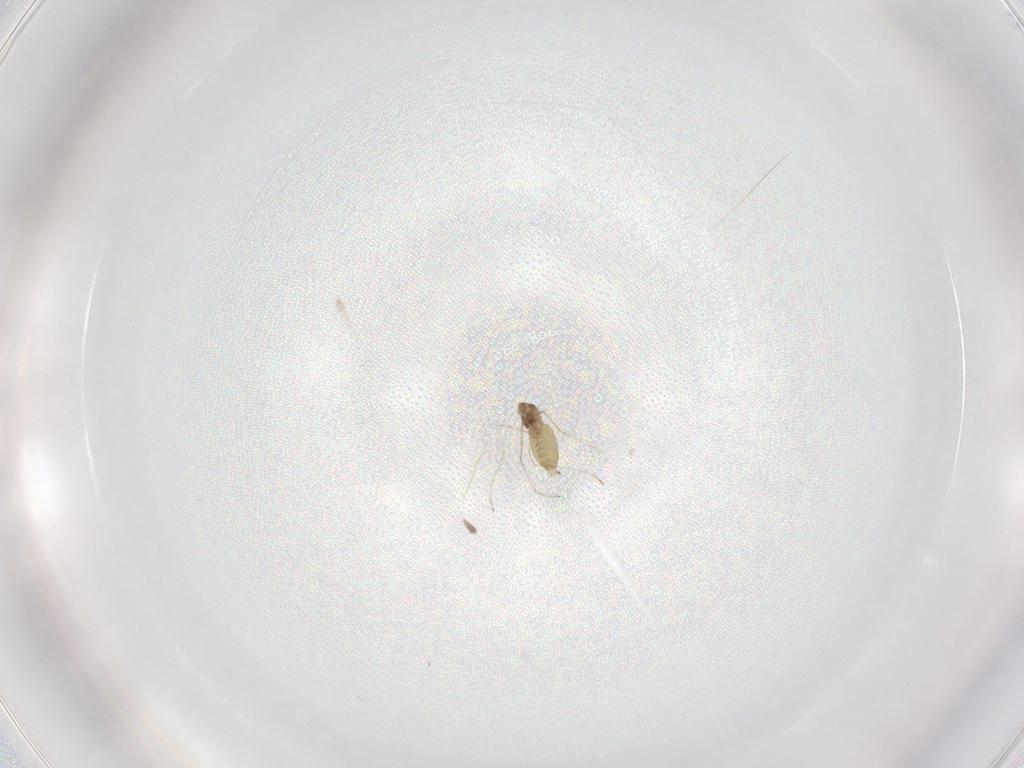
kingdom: Animalia
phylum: Arthropoda
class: Insecta
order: Diptera
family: Cecidomyiidae
